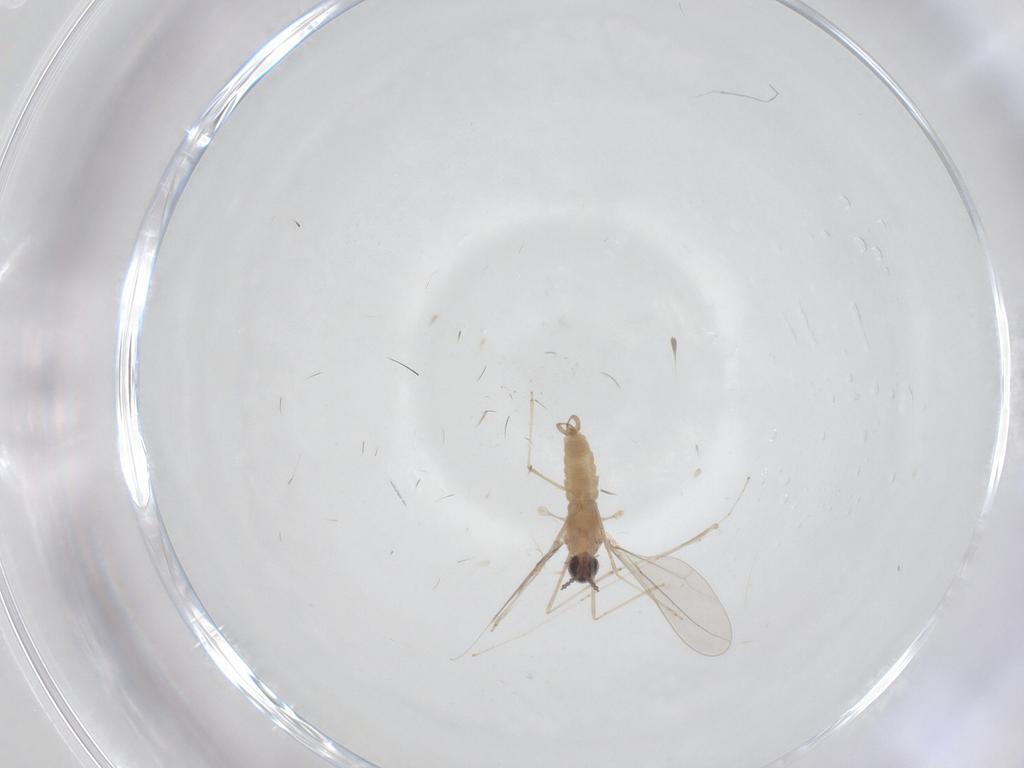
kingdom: Animalia
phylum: Arthropoda
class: Insecta
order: Diptera
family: Cecidomyiidae
